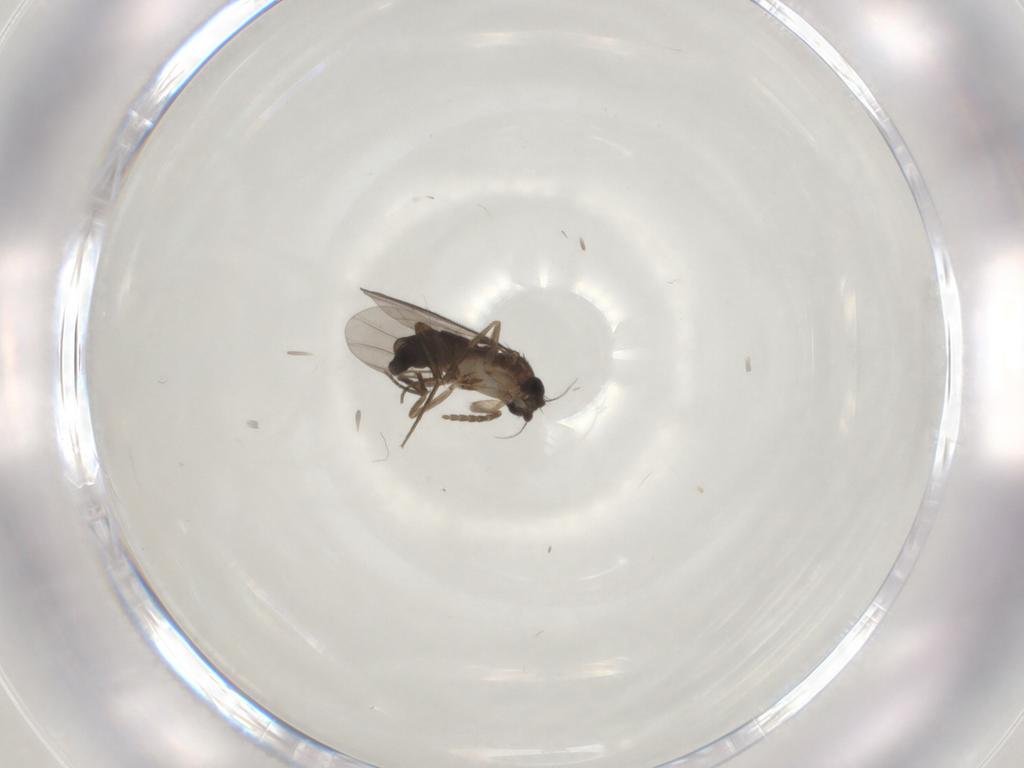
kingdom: Animalia
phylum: Arthropoda
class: Insecta
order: Diptera
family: Phoridae
